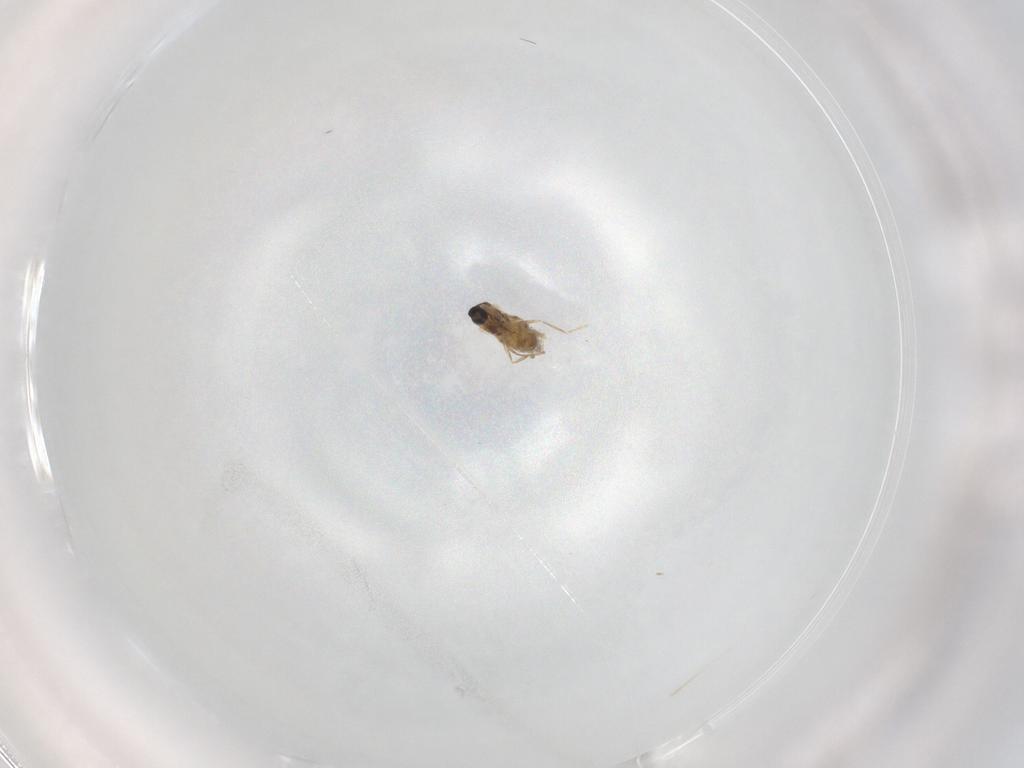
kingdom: Animalia
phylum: Arthropoda
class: Insecta
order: Diptera
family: Cecidomyiidae
